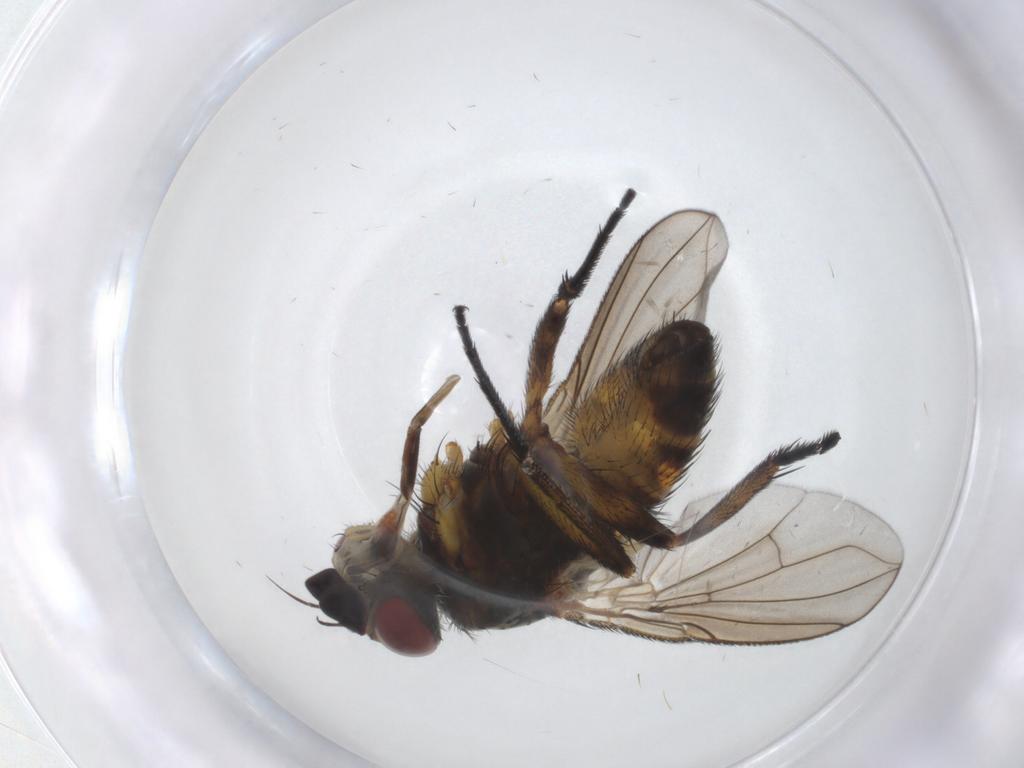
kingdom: Animalia
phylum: Arthropoda
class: Insecta
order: Diptera
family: Tachinidae
